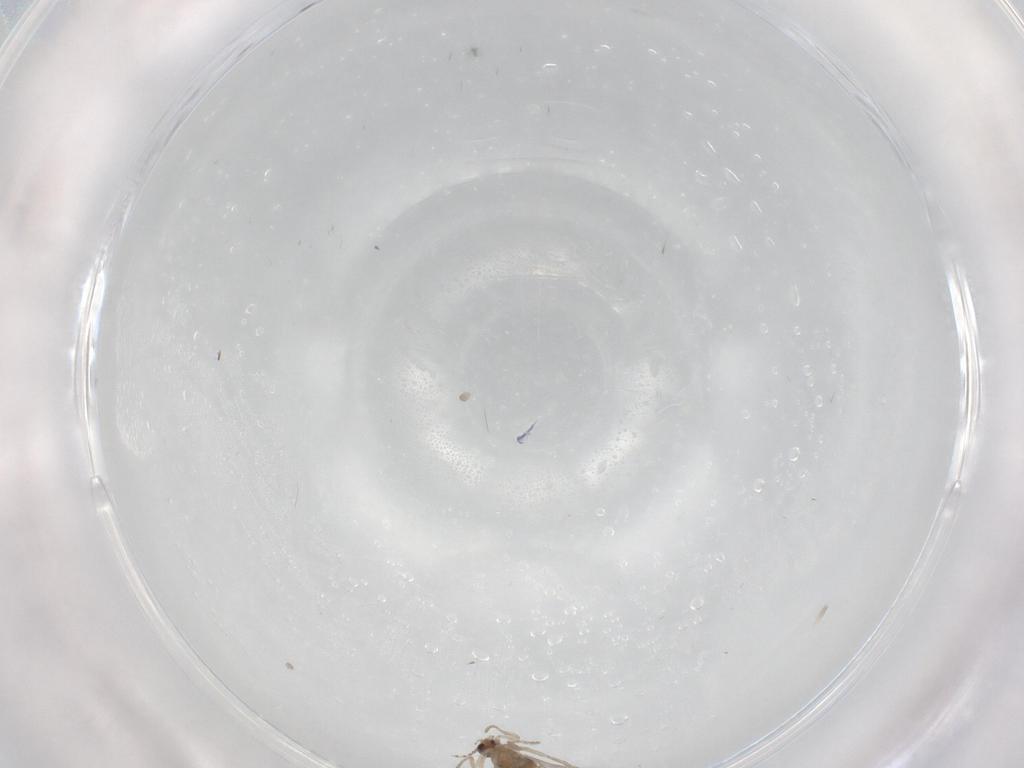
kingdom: Animalia
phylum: Arthropoda
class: Insecta
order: Diptera
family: Cecidomyiidae
